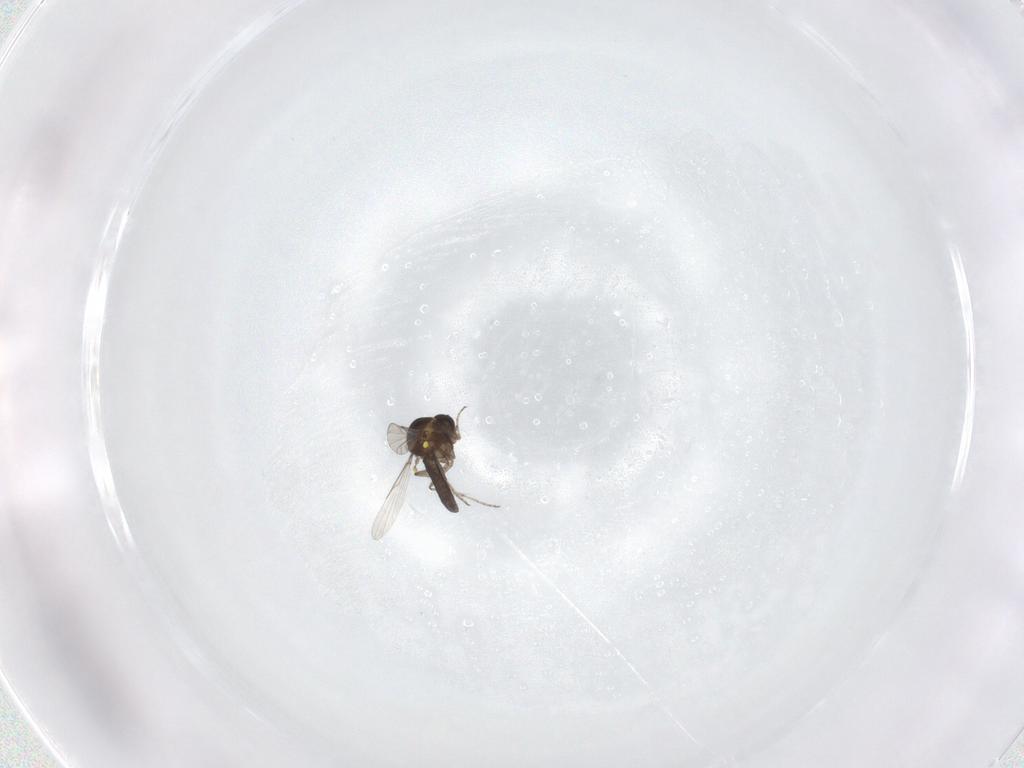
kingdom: Animalia
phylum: Arthropoda
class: Insecta
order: Diptera
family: Ceratopogonidae
